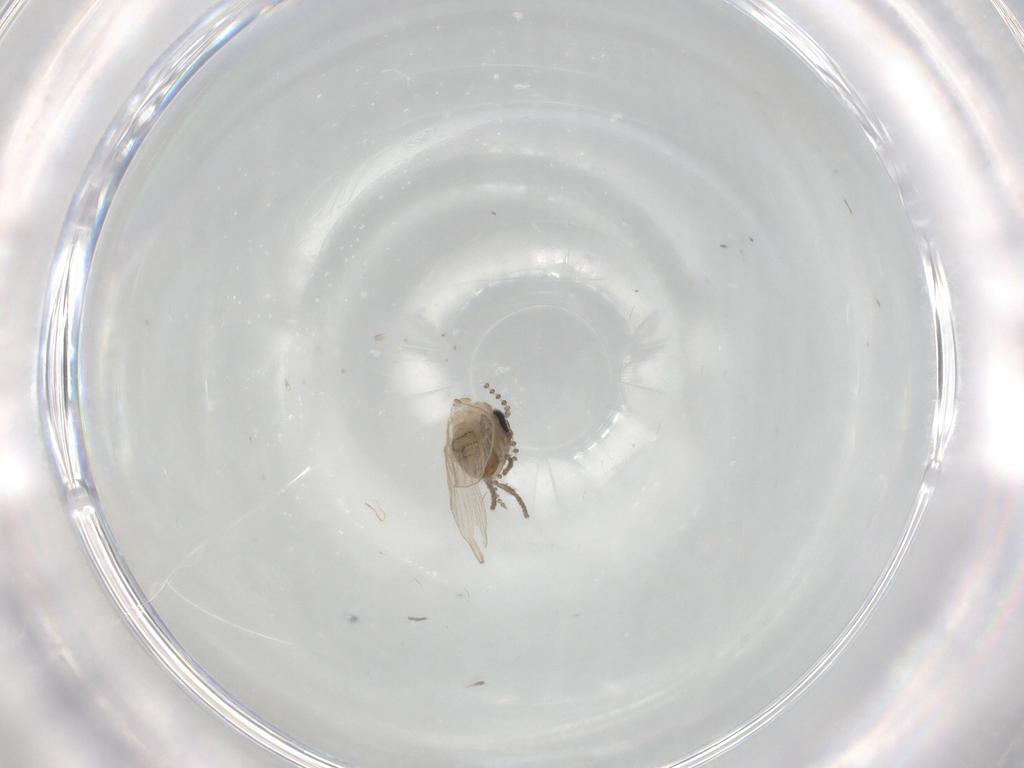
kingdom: Animalia
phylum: Arthropoda
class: Insecta
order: Diptera
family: Psychodidae
